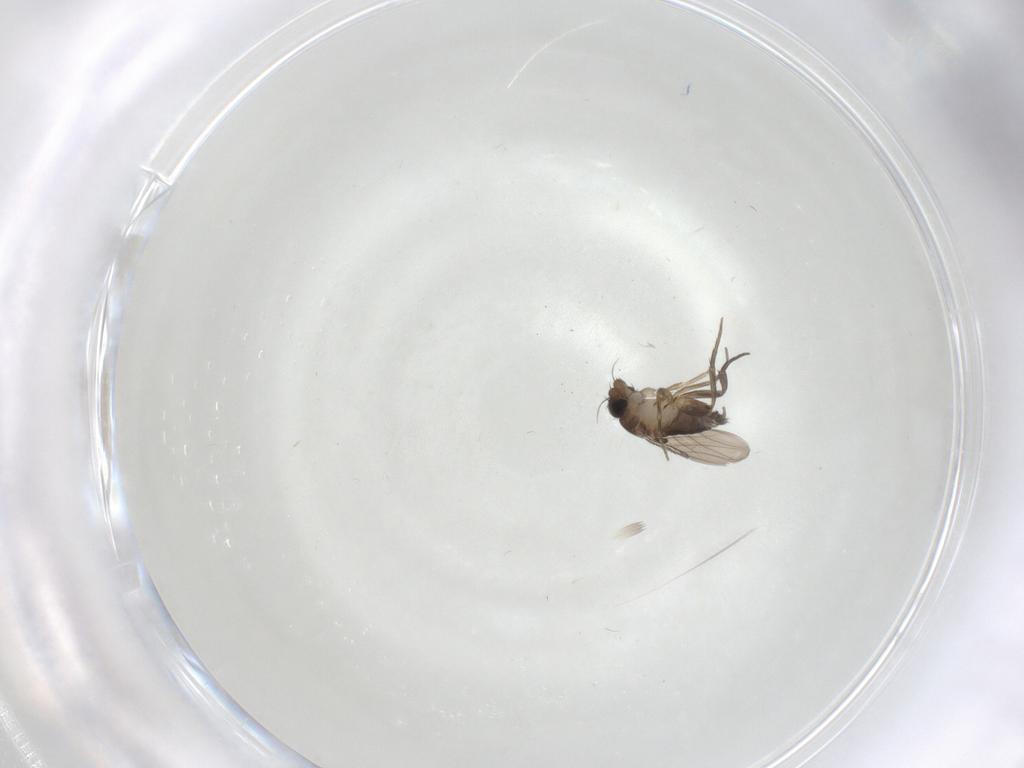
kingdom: Animalia
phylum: Arthropoda
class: Insecta
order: Diptera
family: Phoridae
